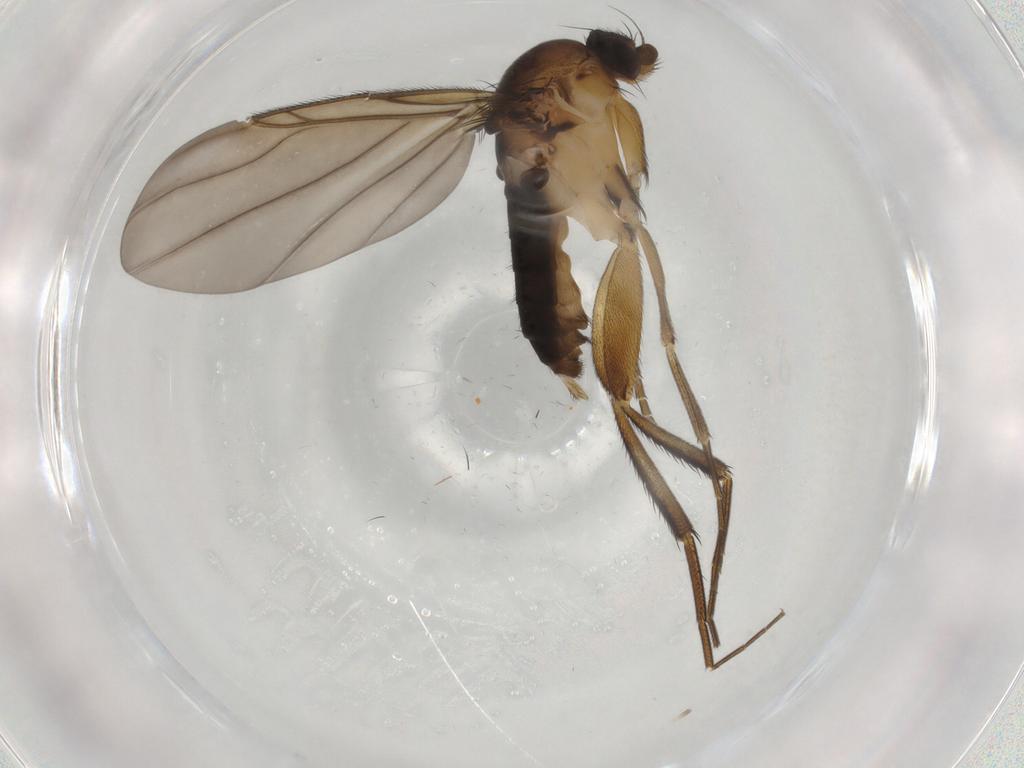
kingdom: Animalia
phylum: Arthropoda
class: Insecta
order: Diptera
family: Phoridae
